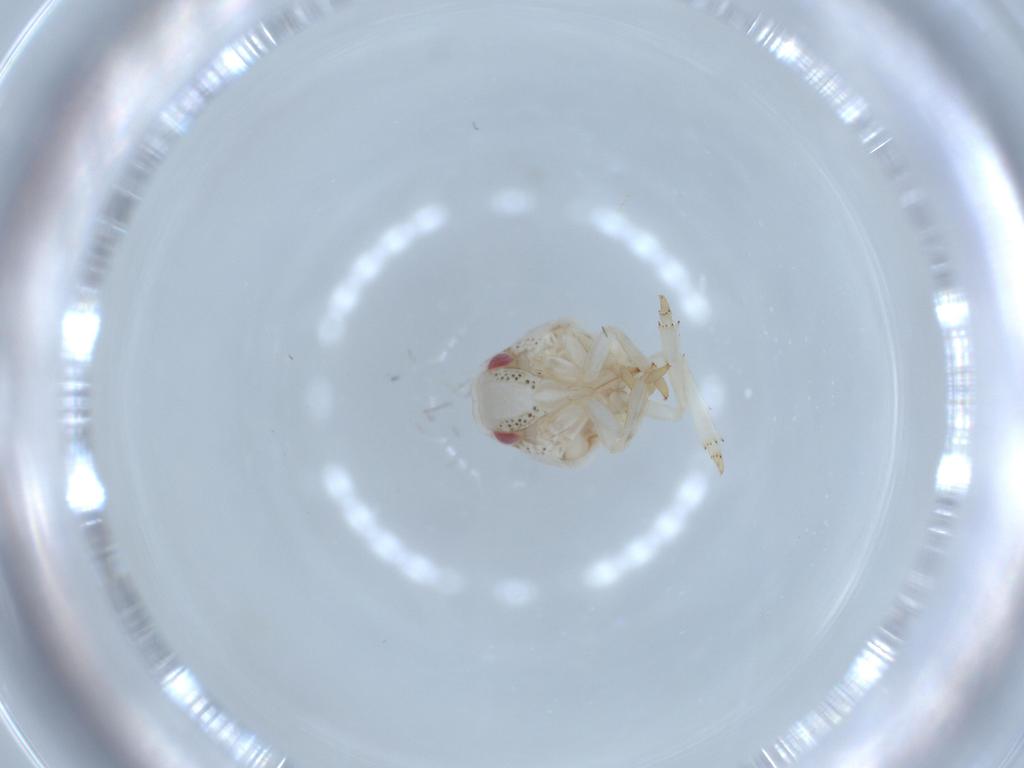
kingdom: Animalia
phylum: Arthropoda
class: Insecta
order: Hemiptera
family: Acanaloniidae
